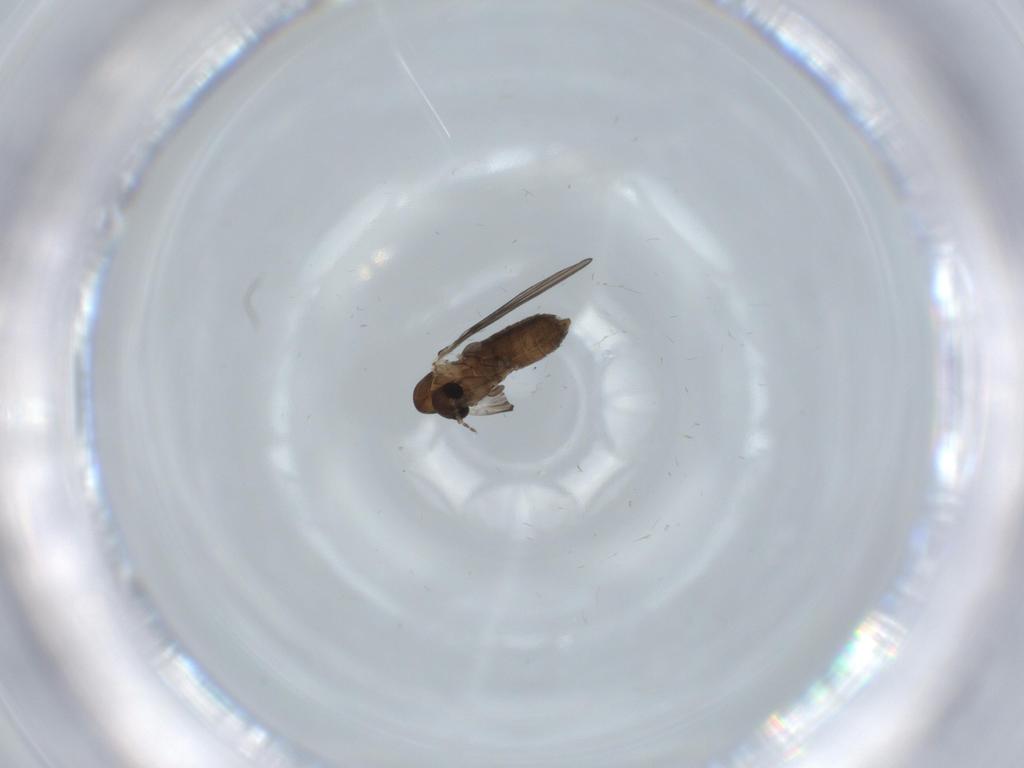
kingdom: Animalia
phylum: Arthropoda
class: Insecta
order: Diptera
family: Psychodidae
